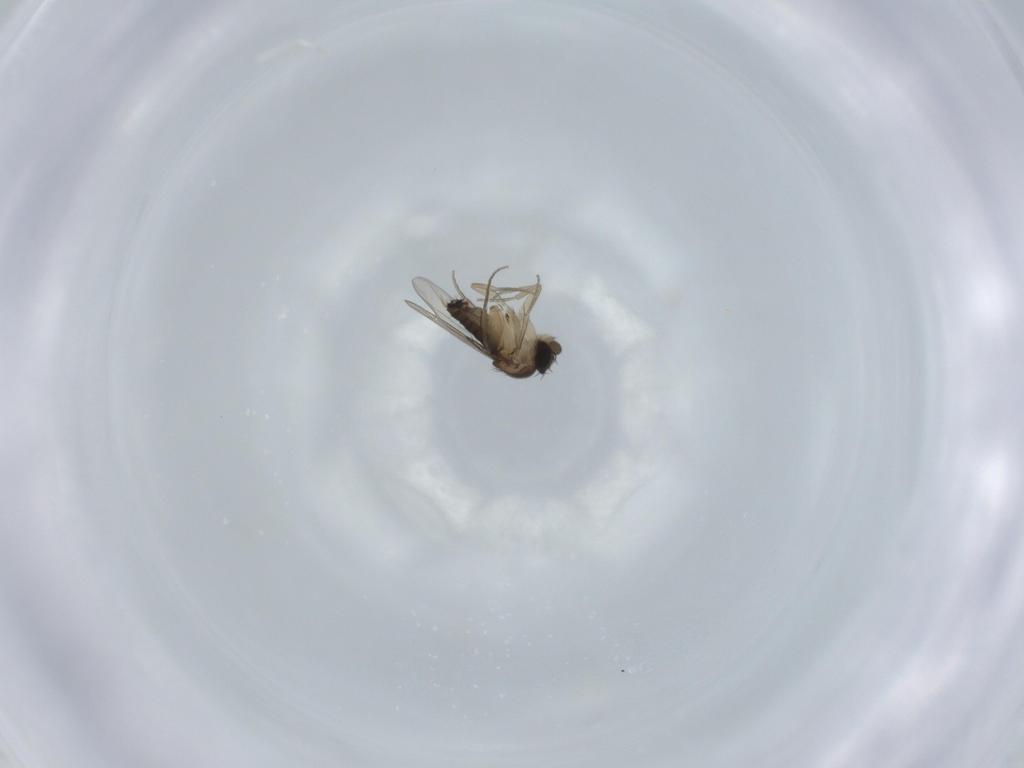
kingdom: Animalia
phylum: Arthropoda
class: Insecta
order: Diptera
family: Phoridae
